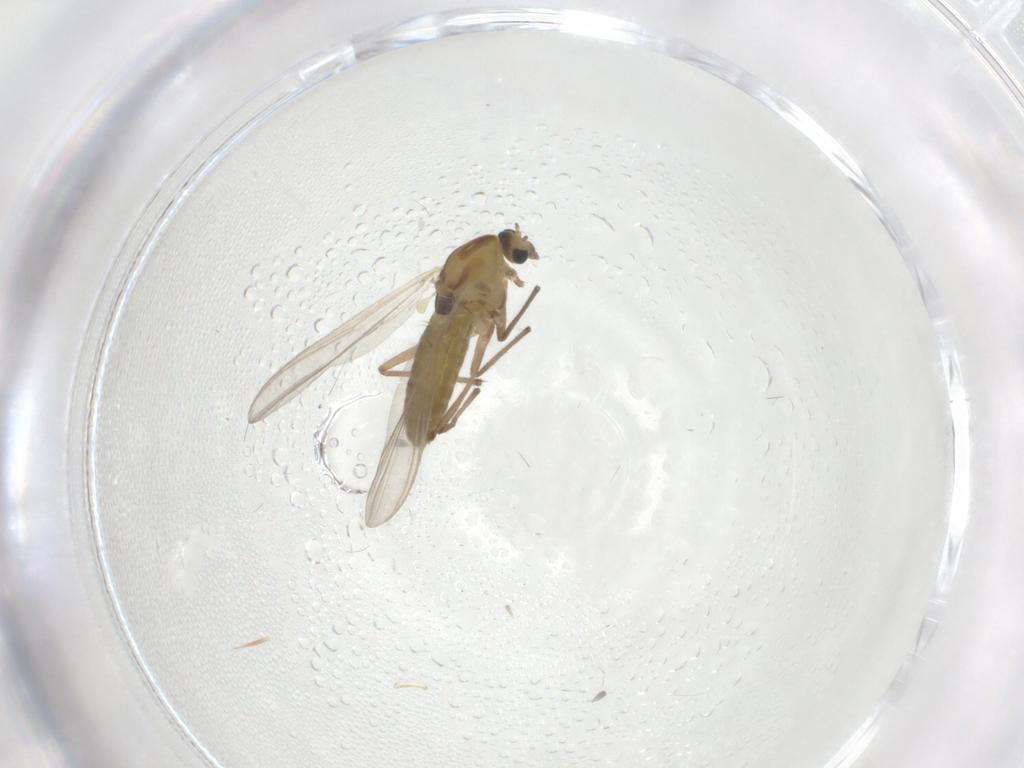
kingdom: Animalia
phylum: Arthropoda
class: Insecta
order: Diptera
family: Chironomidae
